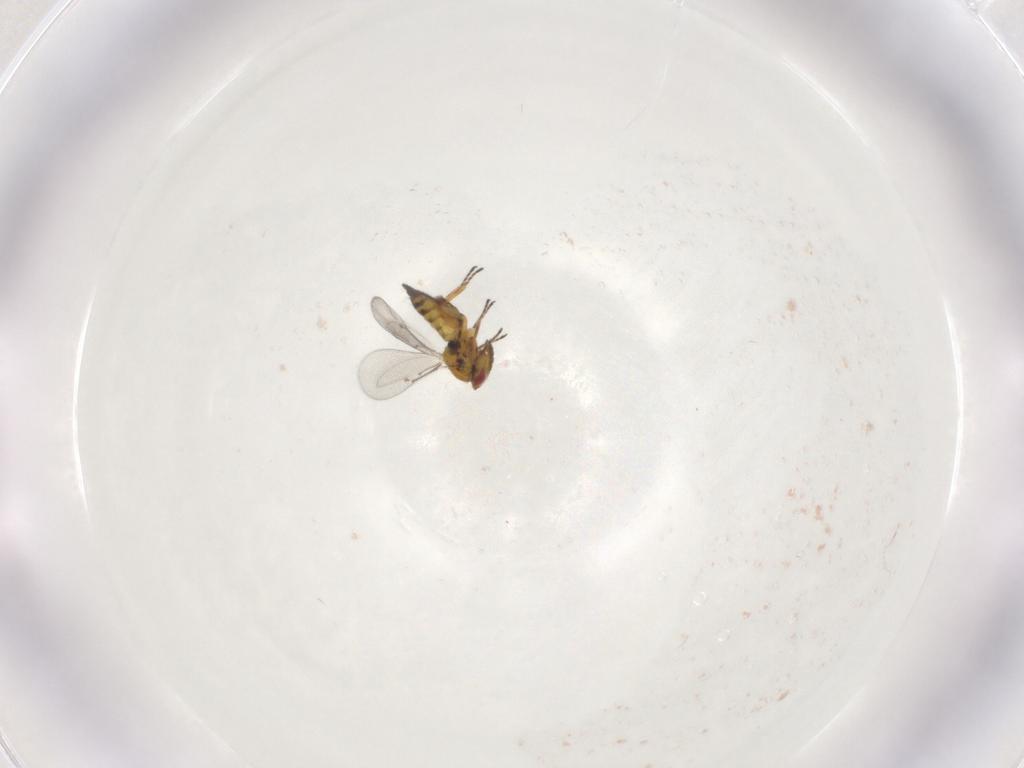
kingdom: Animalia
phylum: Arthropoda
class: Insecta
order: Hymenoptera
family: Eulophidae
